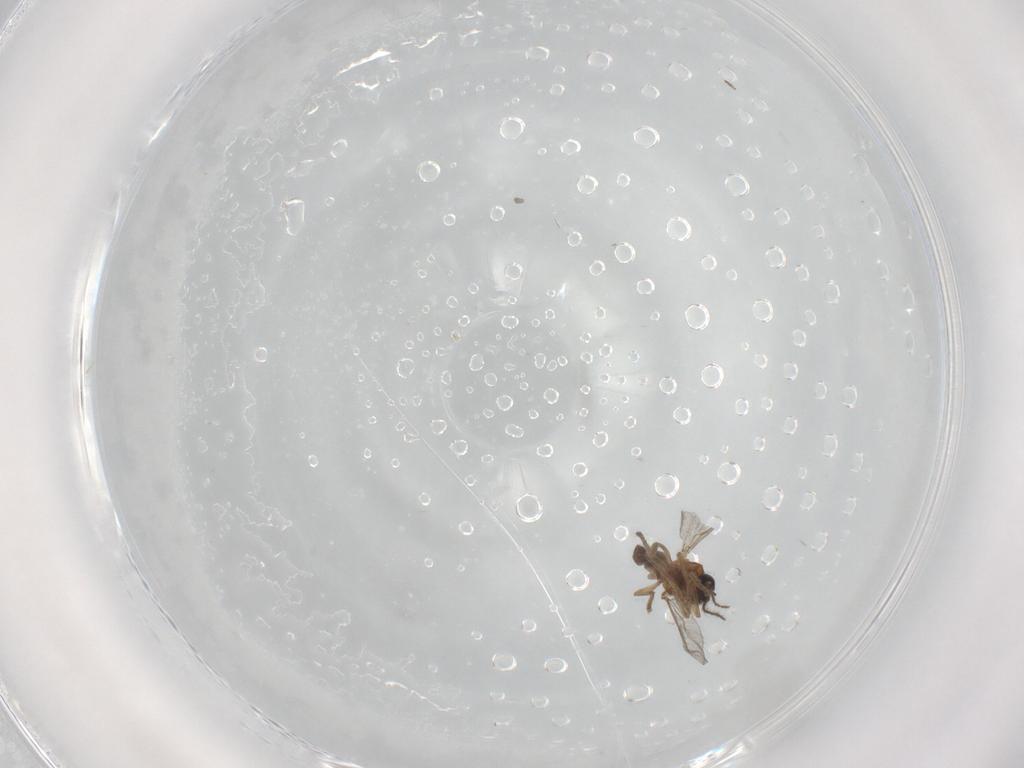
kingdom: Animalia
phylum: Arthropoda
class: Insecta
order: Diptera
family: Ceratopogonidae
